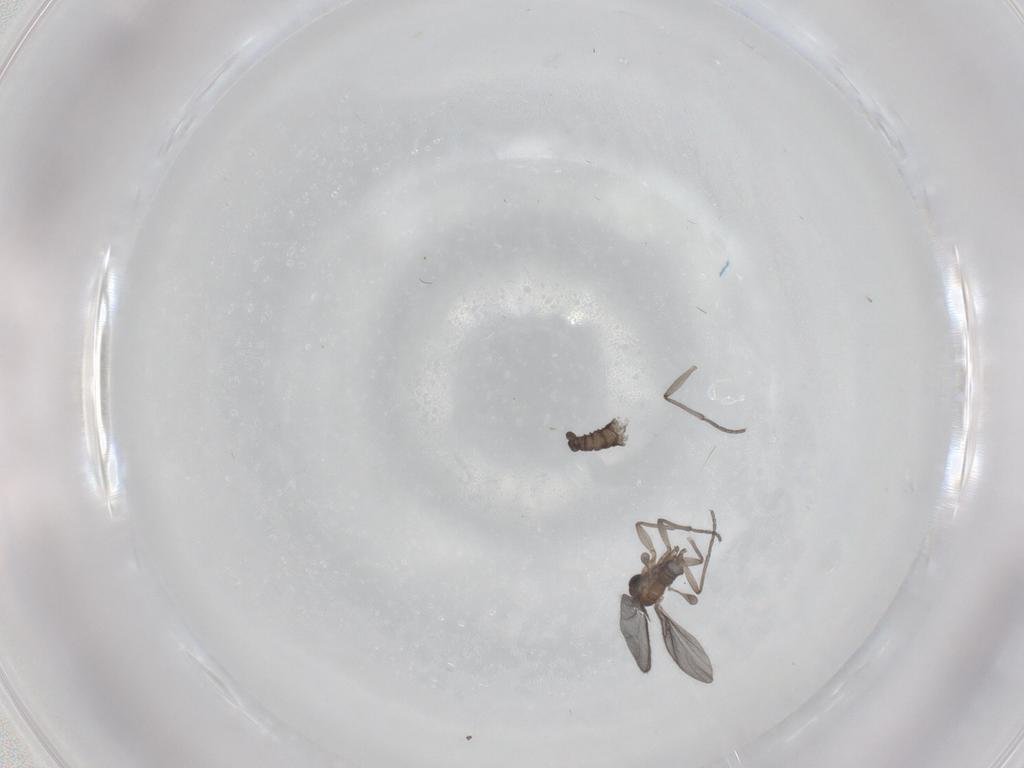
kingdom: Animalia
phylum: Arthropoda
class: Insecta
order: Diptera
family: Sciaridae
